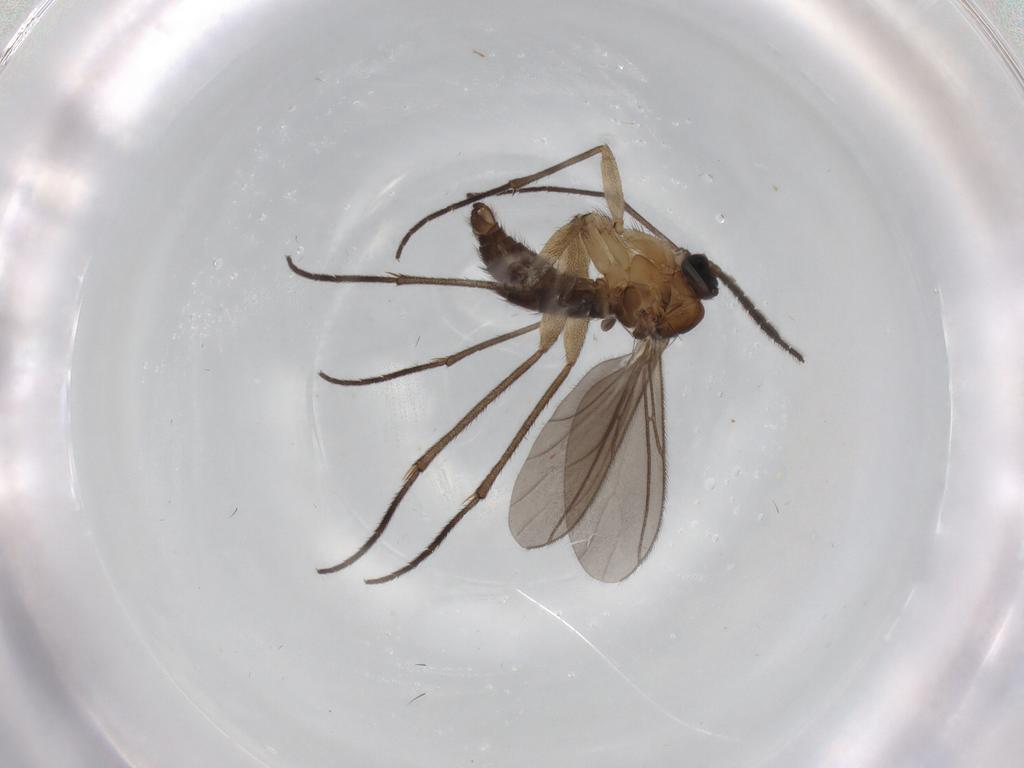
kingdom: Animalia
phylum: Arthropoda
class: Insecta
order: Diptera
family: Sciaridae
